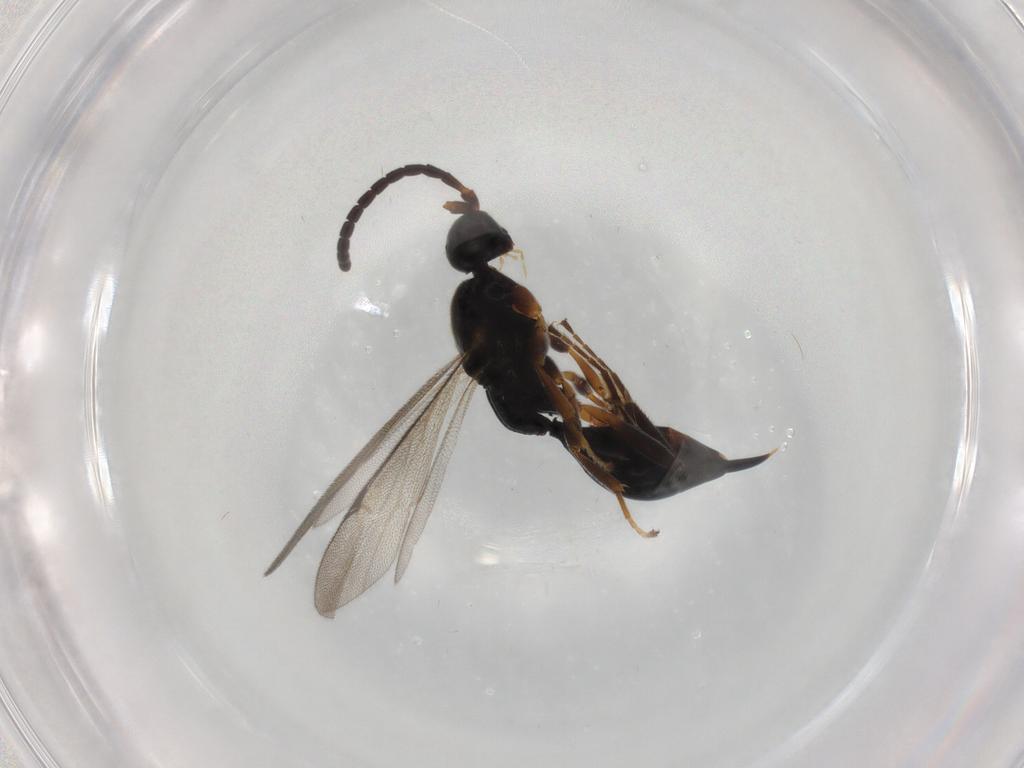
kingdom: Animalia
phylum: Arthropoda
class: Insecta
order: Hymenoptera
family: Proctotrupidae
